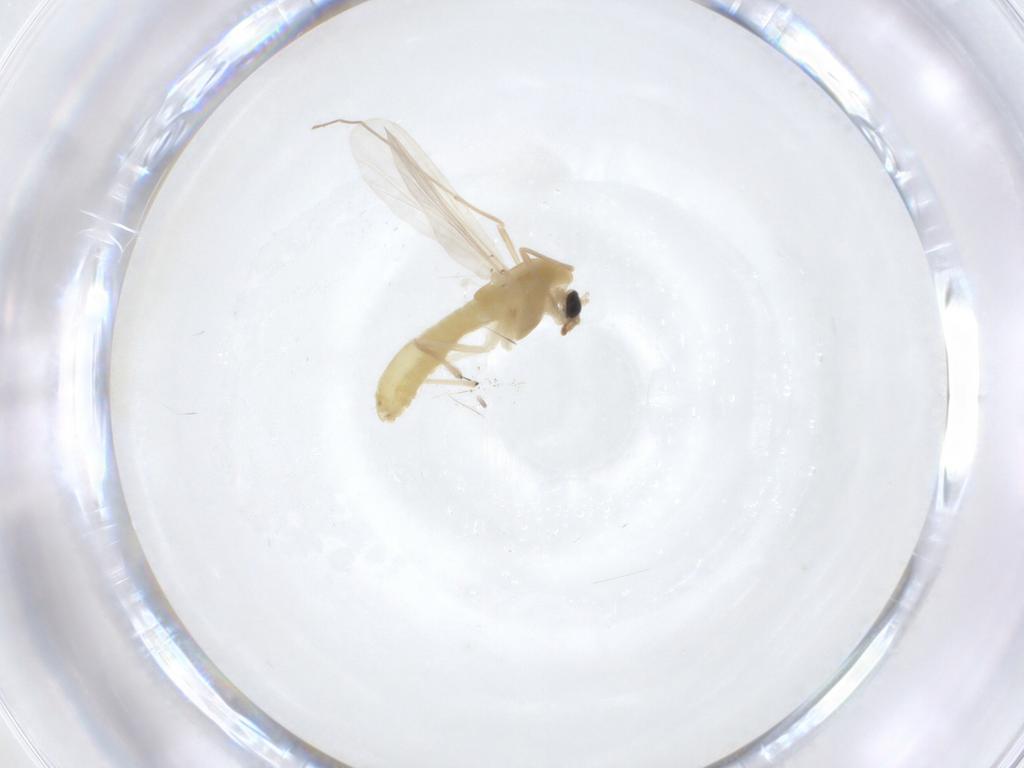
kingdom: Animalia
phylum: Arthropoda
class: Insecta
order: Diptera
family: Chironomidae
